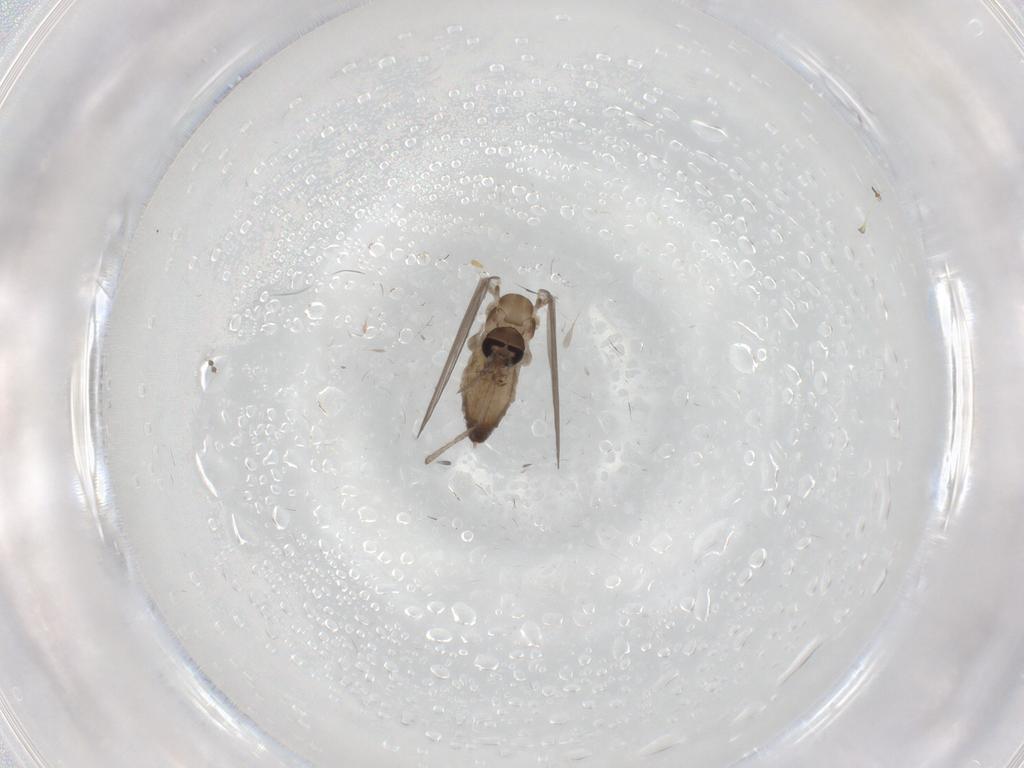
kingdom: Animalia
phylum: Arthropoda
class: Insecta
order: Diptera
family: Psychodidae
